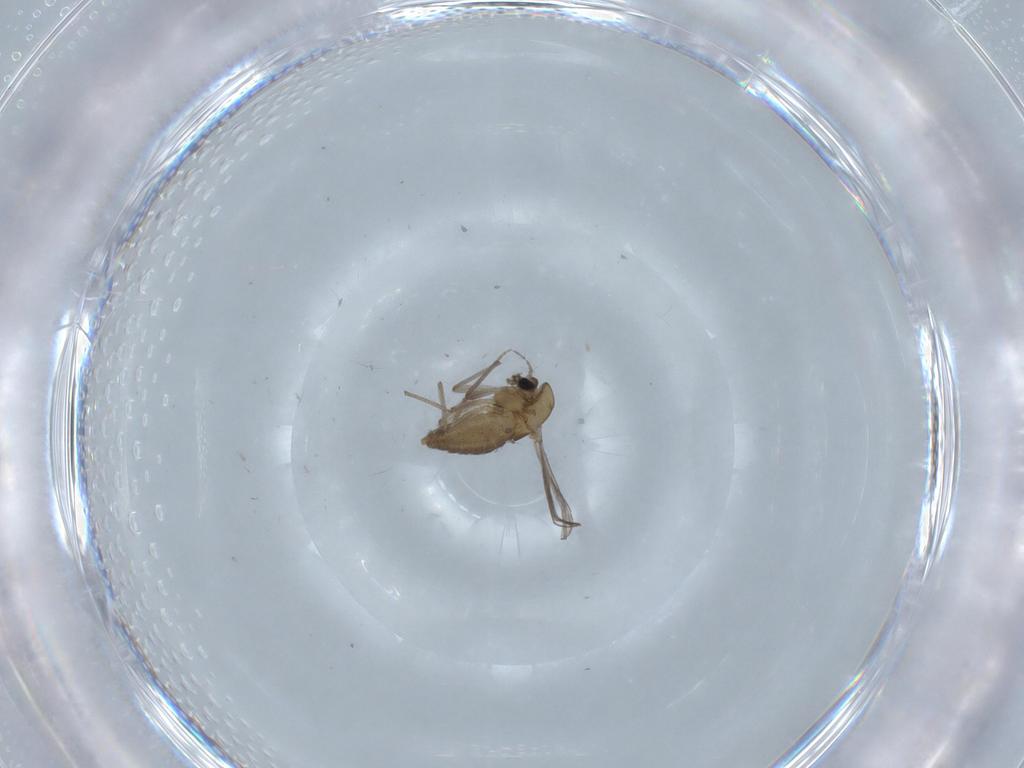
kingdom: Animalia
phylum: Arthropoda
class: Insecta
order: Diptera
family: Chironomidae
